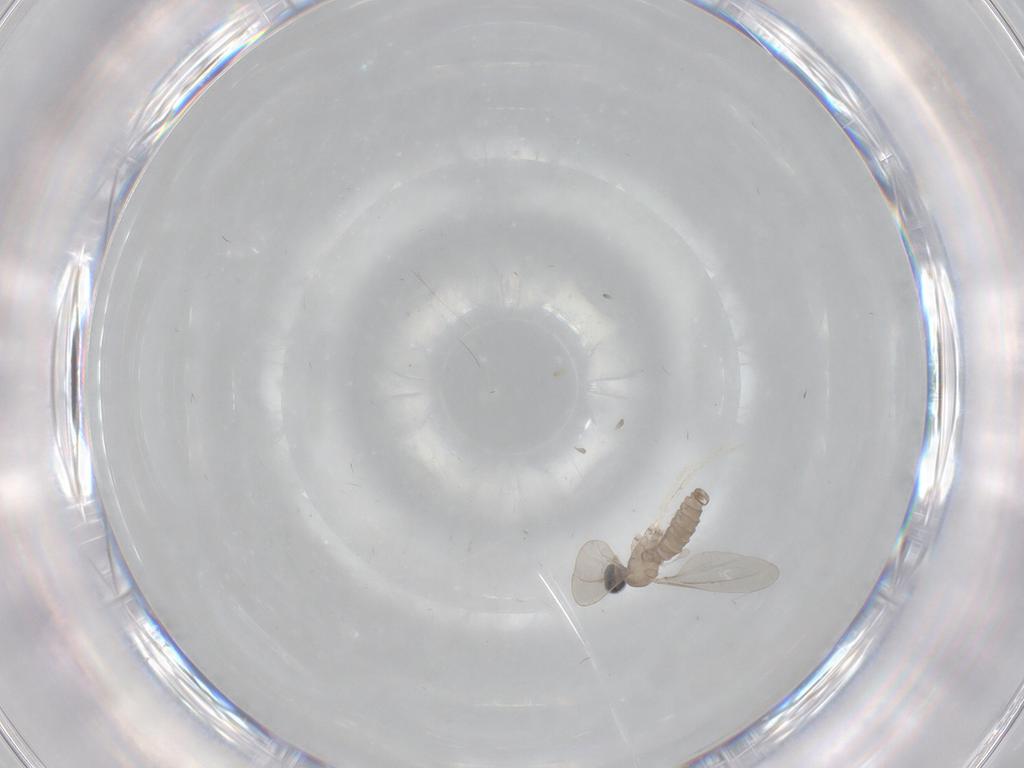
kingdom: Animalia
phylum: Arthropoda
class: Insecta
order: Diptera
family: Cecidomyiidae
